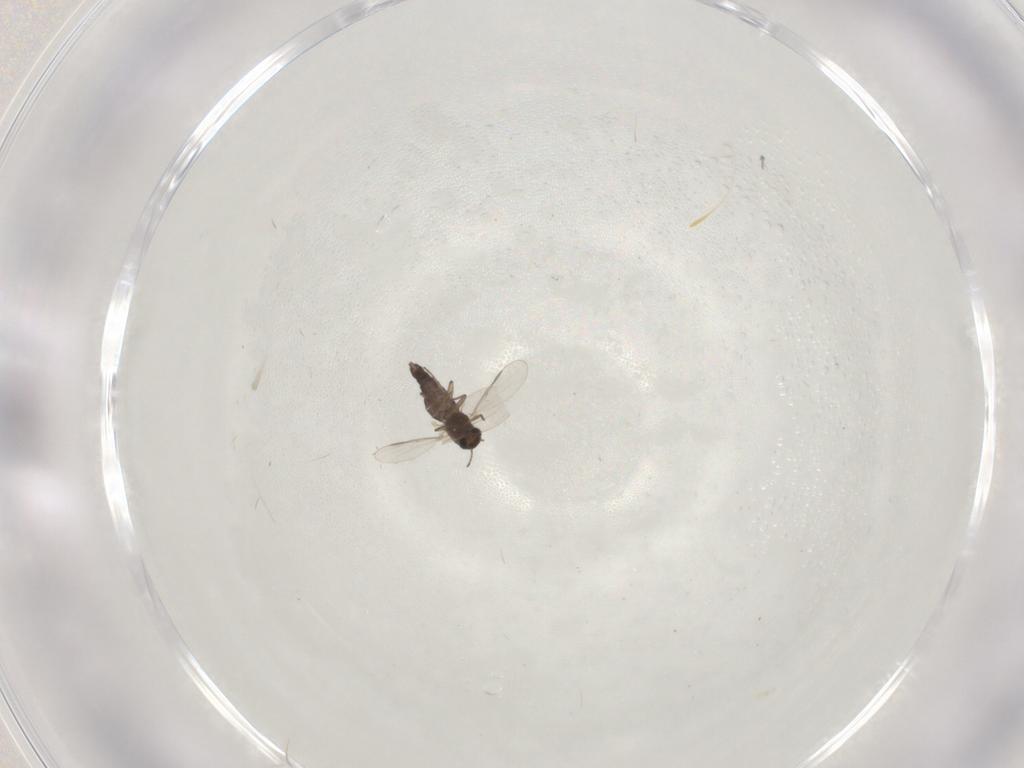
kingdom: Animalia
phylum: Arthropoda
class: Insecta
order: Diptera
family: Chironomidae
